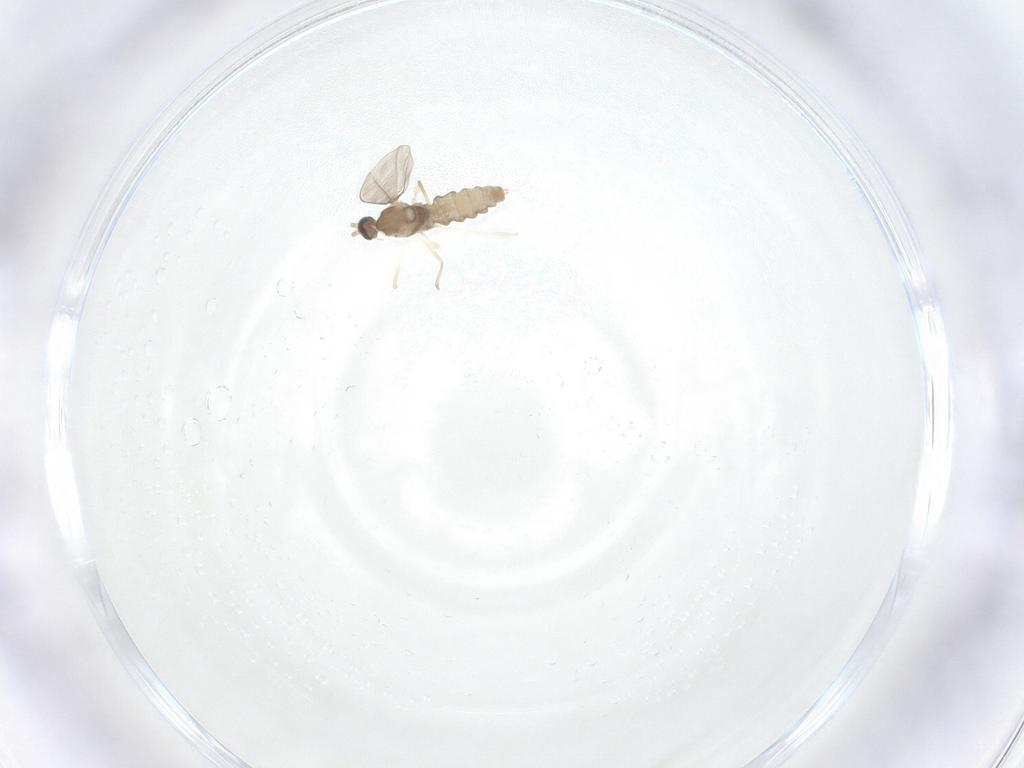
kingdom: Animalia
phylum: Arthropoda
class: Insecta
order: Diptera
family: Cecidomyiidae
